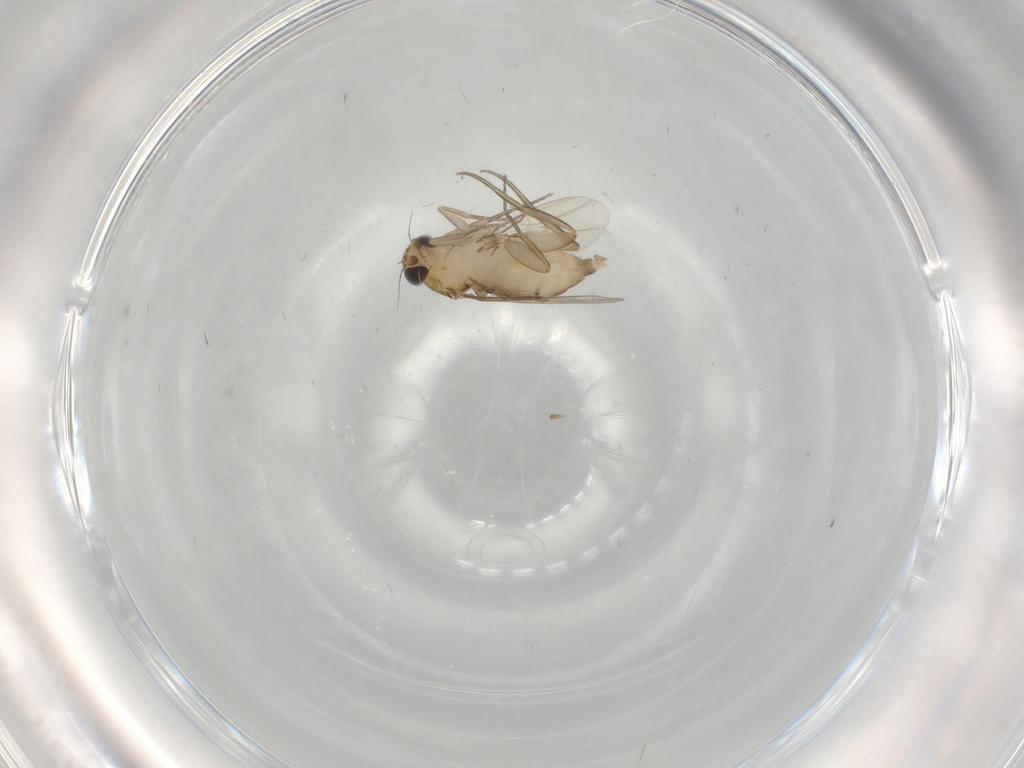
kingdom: Animalia
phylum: Arthropoda
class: Insecta
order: Diptera
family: Phoridae
